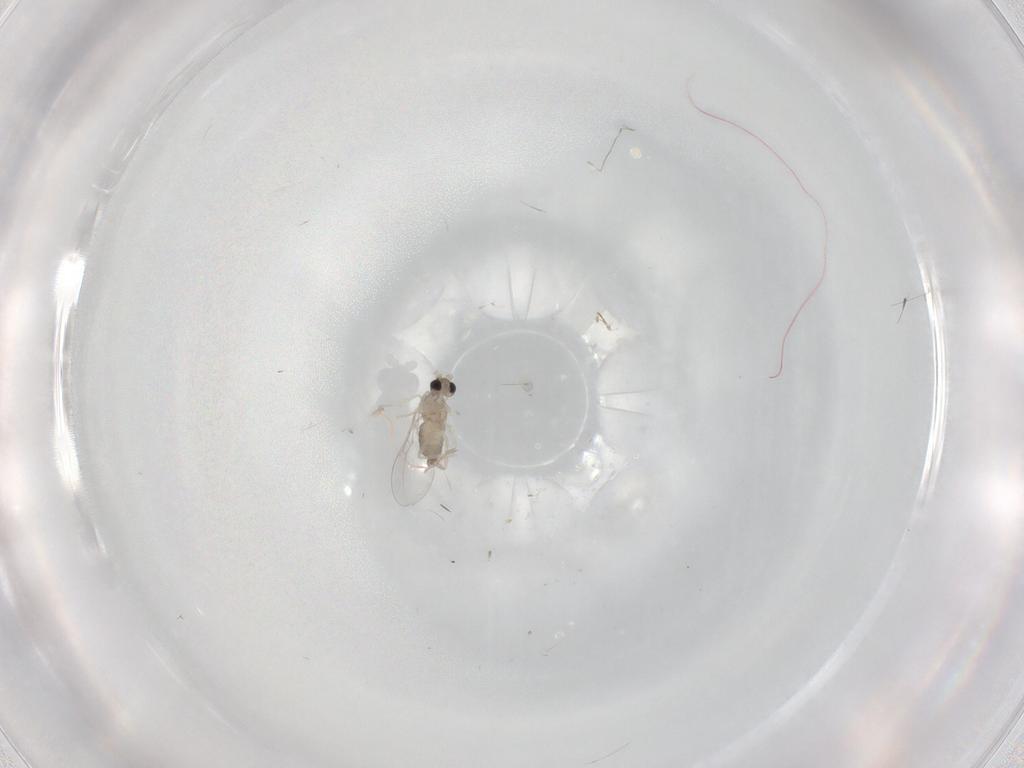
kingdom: Animalia
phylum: Arthropoda
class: Insecta
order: Diptera
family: Cecidomyiidae
